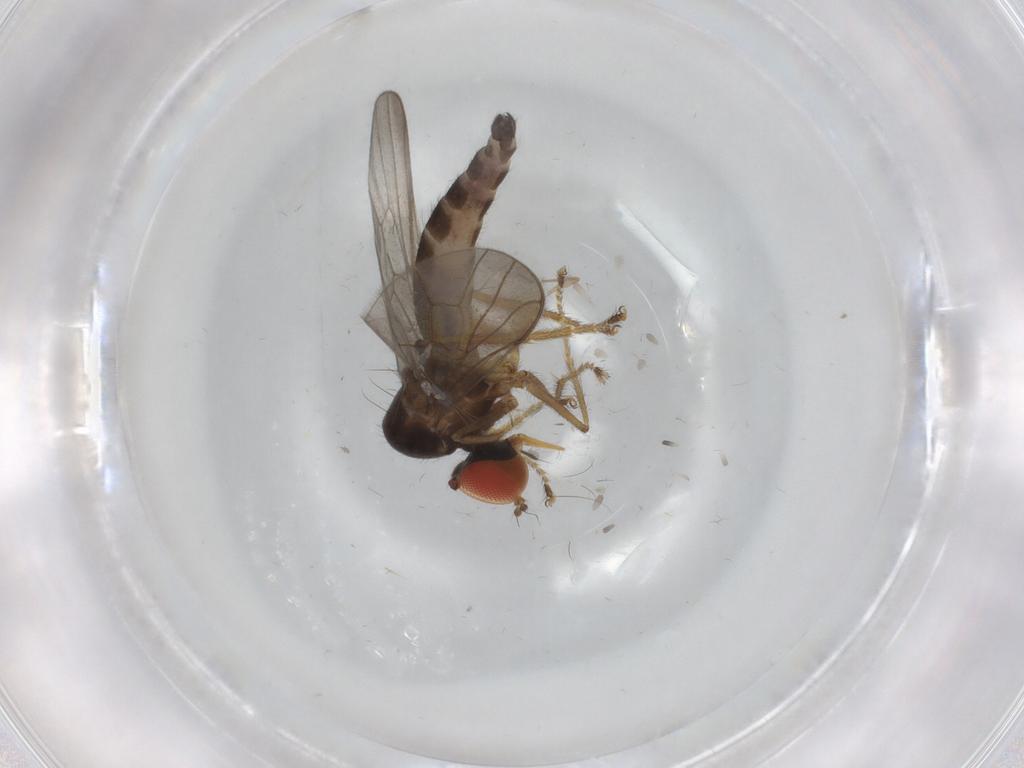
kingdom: Animalia
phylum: Arthropoda
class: Insecta
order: Diptera
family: Hybotidae
